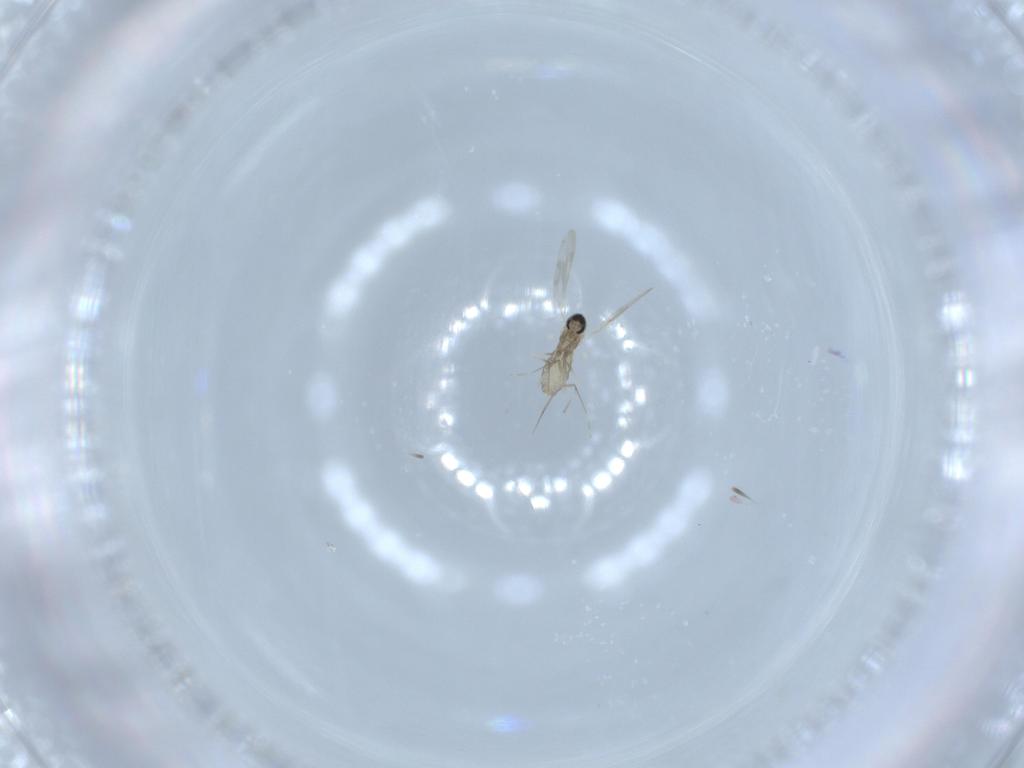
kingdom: Animalia
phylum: Arthropoda
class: Insecta
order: Diptera
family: Cecidomyiidae
